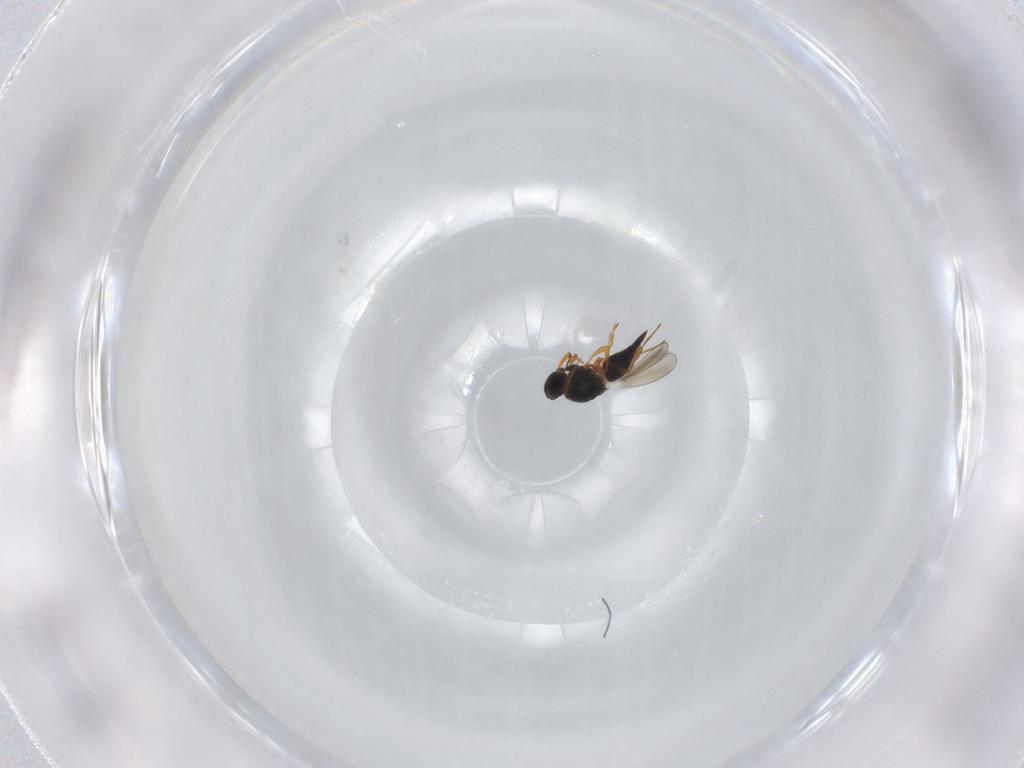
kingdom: Animalia
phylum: Arthropoda
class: Insecta
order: Hymenoptera
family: Platygastridae
